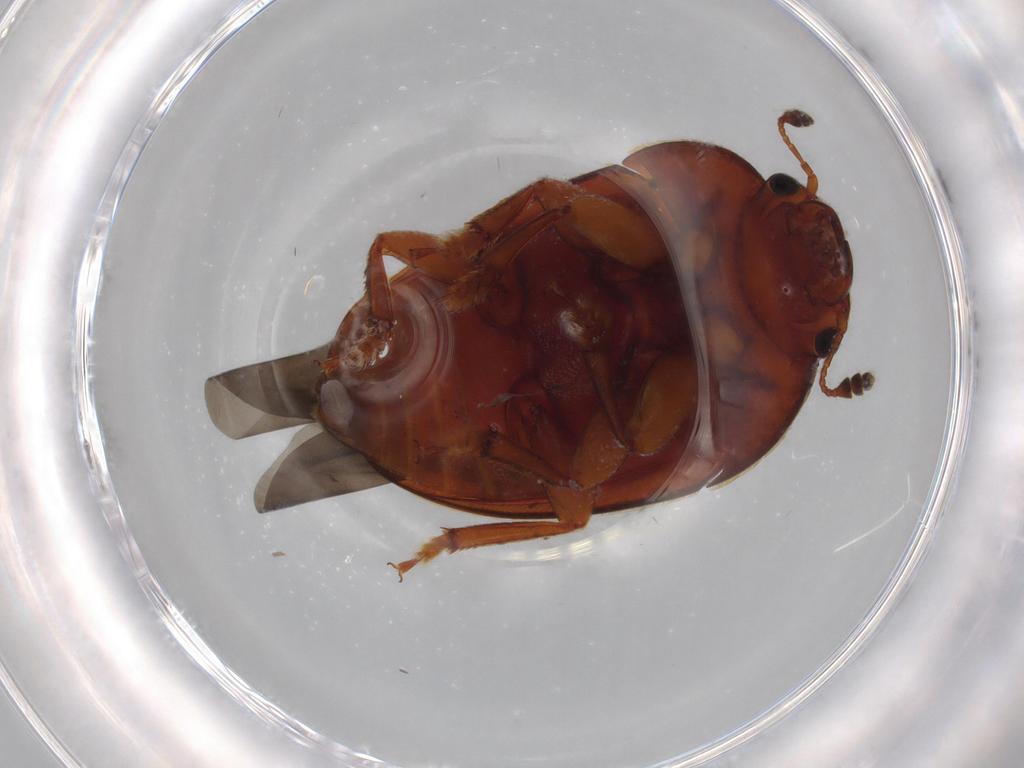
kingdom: Animalia
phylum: Arthropoda
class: Insecta
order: Coleoptera
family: Nitidulidae
